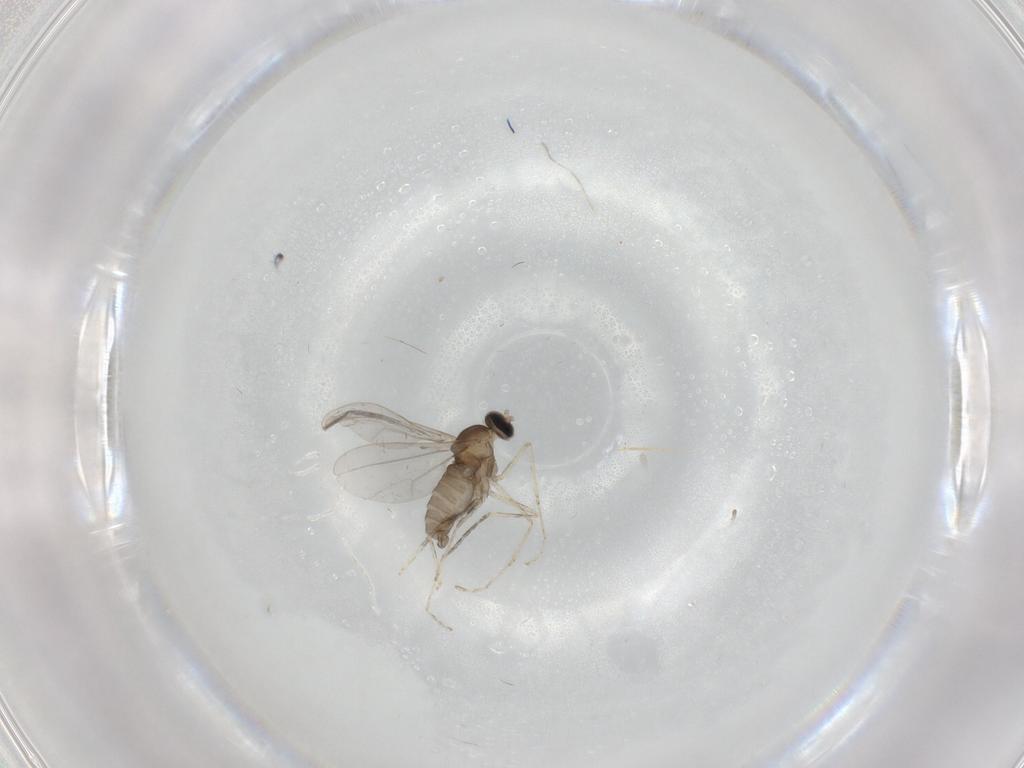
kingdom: Animalia
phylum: Arthropoda
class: Insecta
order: Diptera
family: Cecidomyiidae
